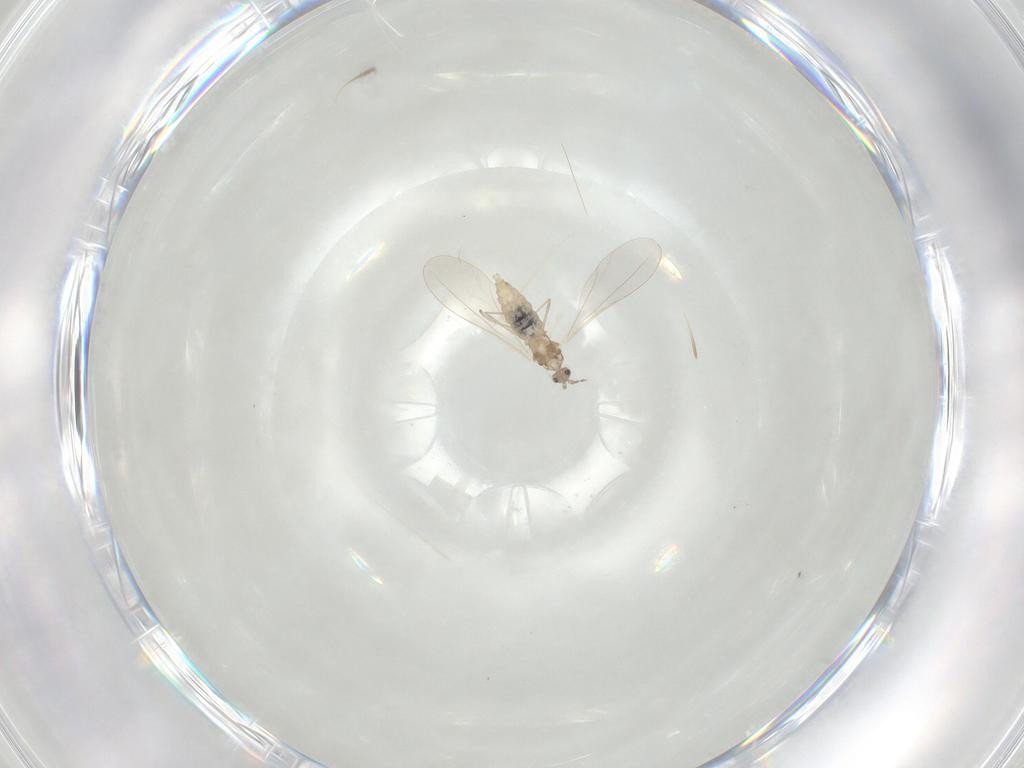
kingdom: Animalia
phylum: Arthropoda
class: Insecta
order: Diptera
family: Cecidomyiidae
